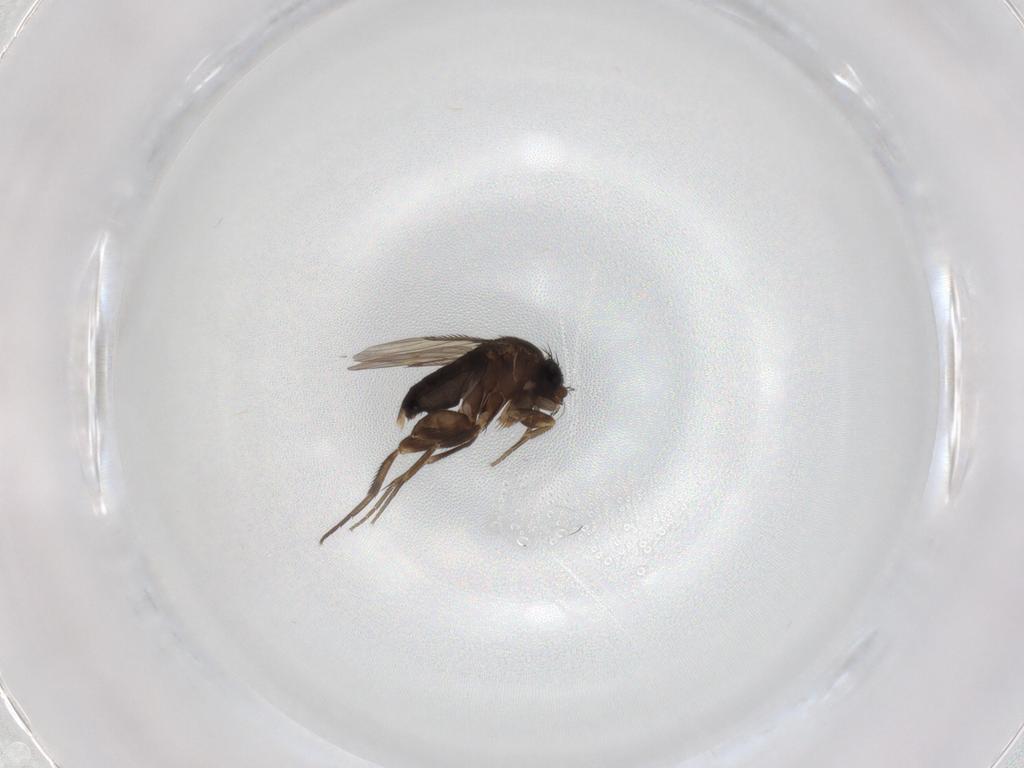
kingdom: Animalia
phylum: Arthropoda
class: Insecta
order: Diptera
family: Phoridae
